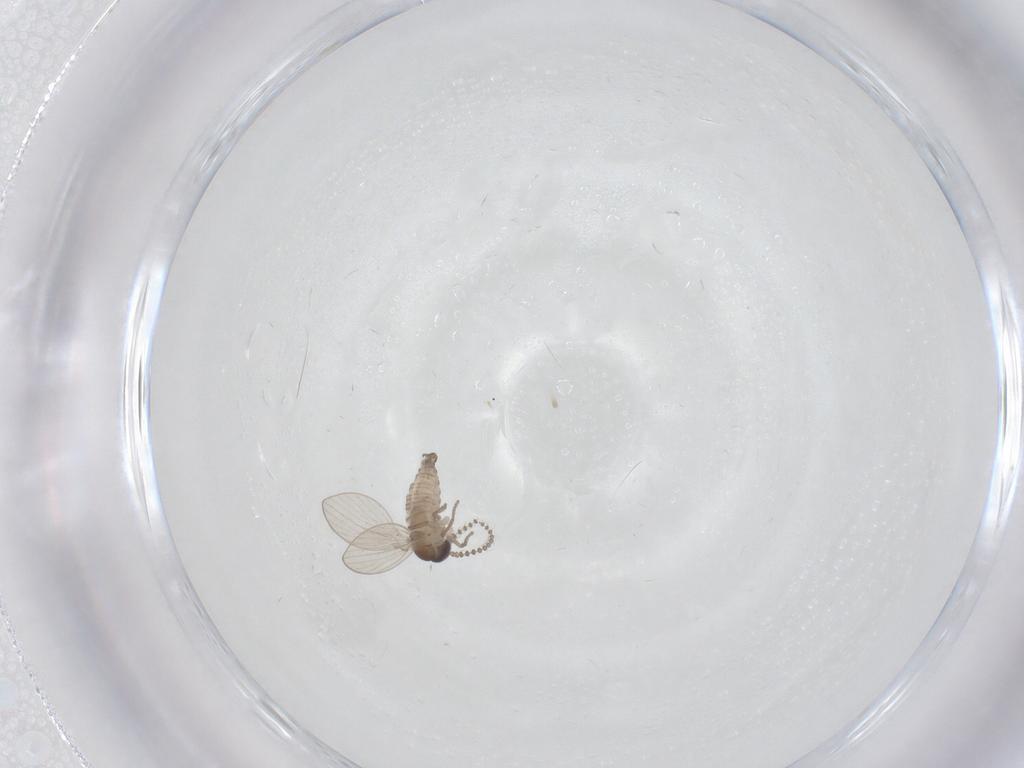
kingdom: Animalia
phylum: Arthropoda
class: Insecta
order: Diptera
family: Psychodidae
